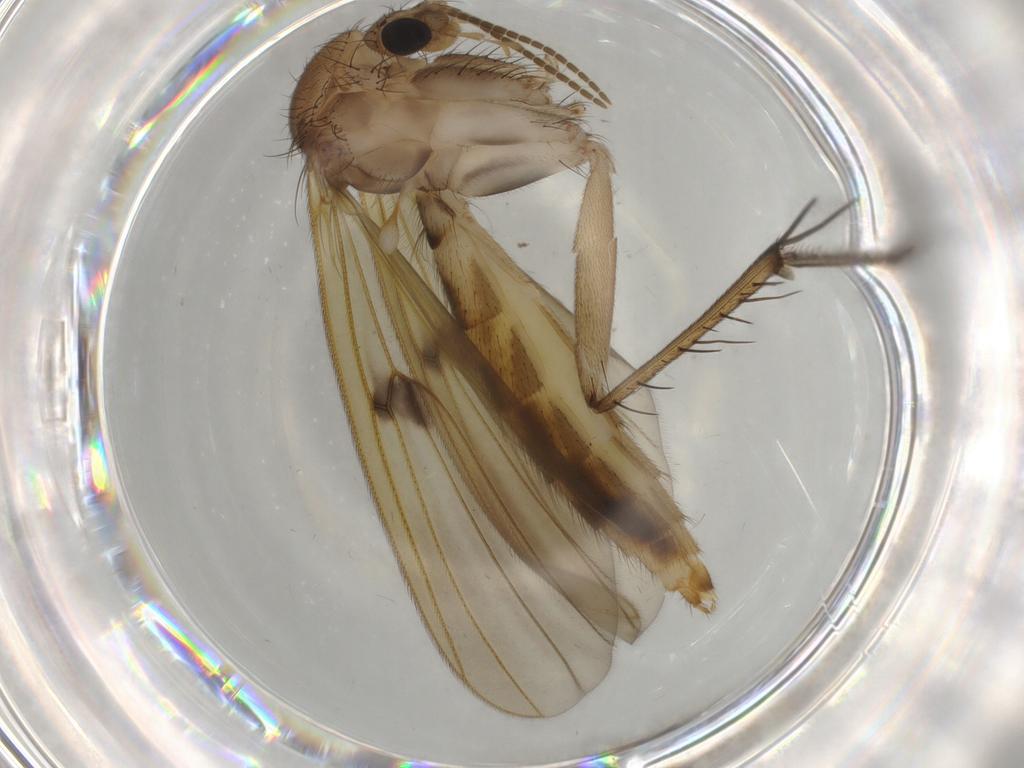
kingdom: Animalia
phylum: Arthropoda
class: Insecta
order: Diptera
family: Mycetophilidae
